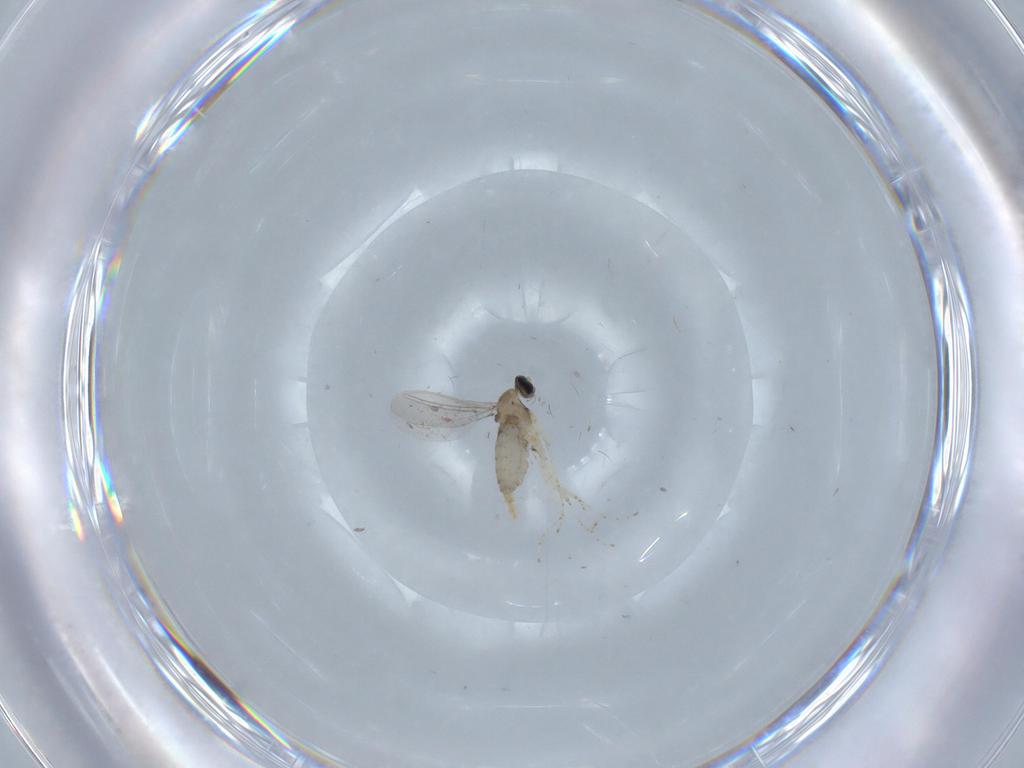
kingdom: Animalia
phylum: Arthropoda
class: Insecta
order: Diptera
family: Cecidomyiidae
